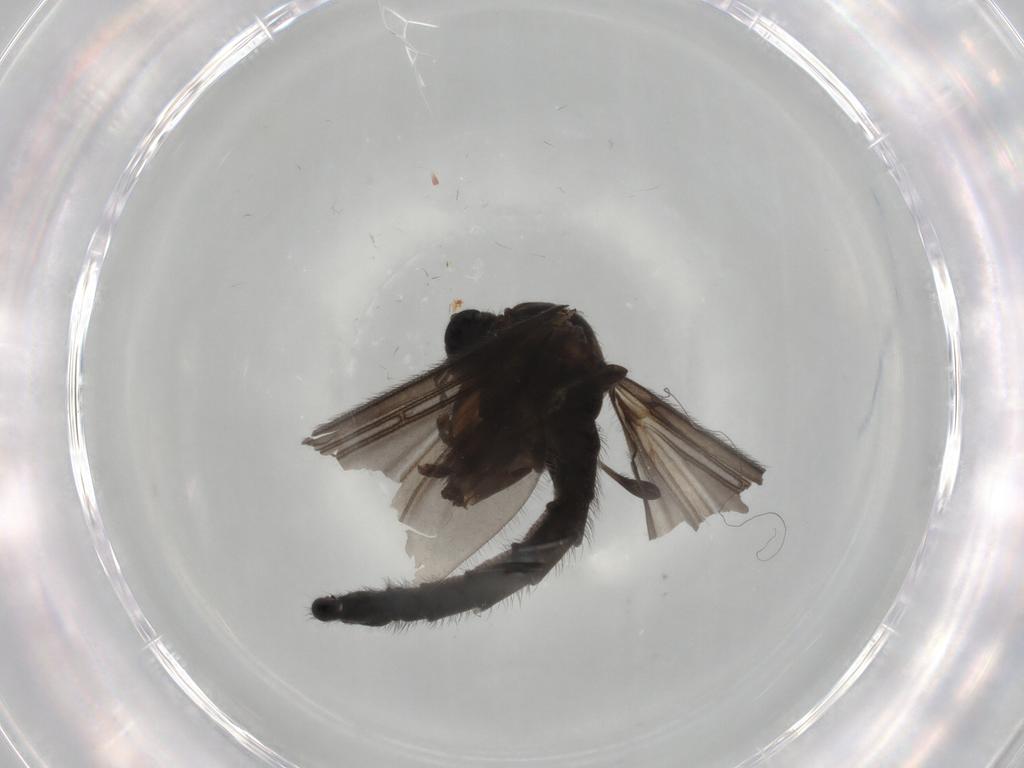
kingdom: Animalia
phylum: Arthropoda
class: Insecta
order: Diptera
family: Sciaridae
